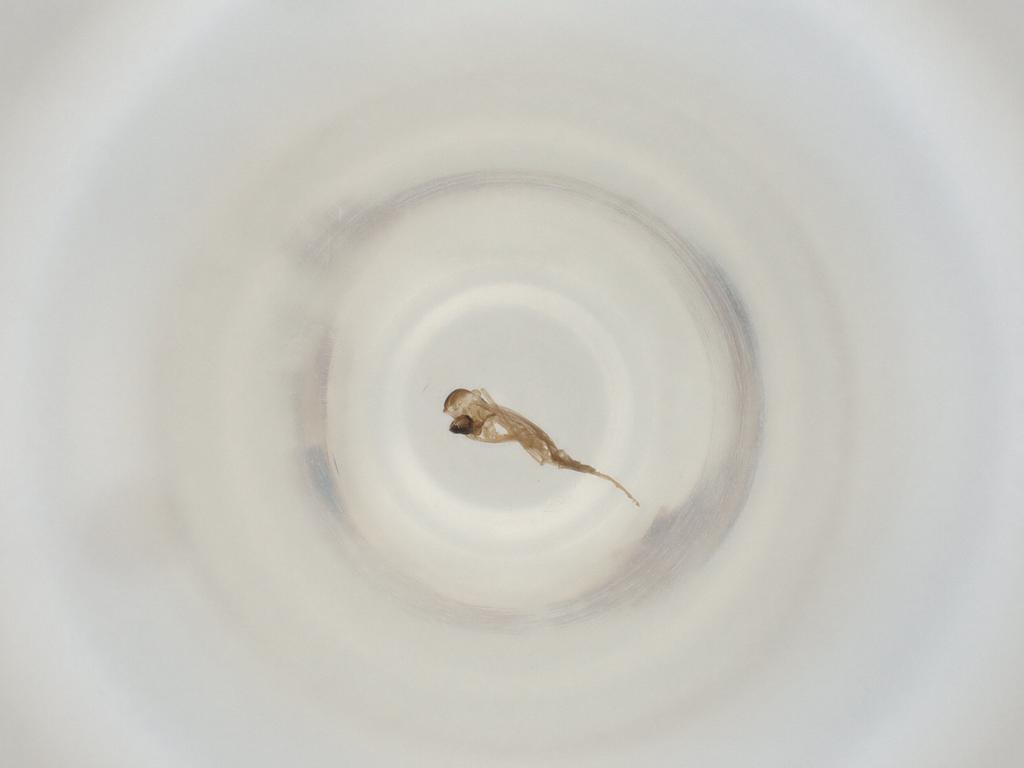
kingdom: Animalia
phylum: Arthropoda
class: Insecta
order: Diptera
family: Cecidomyiidae
